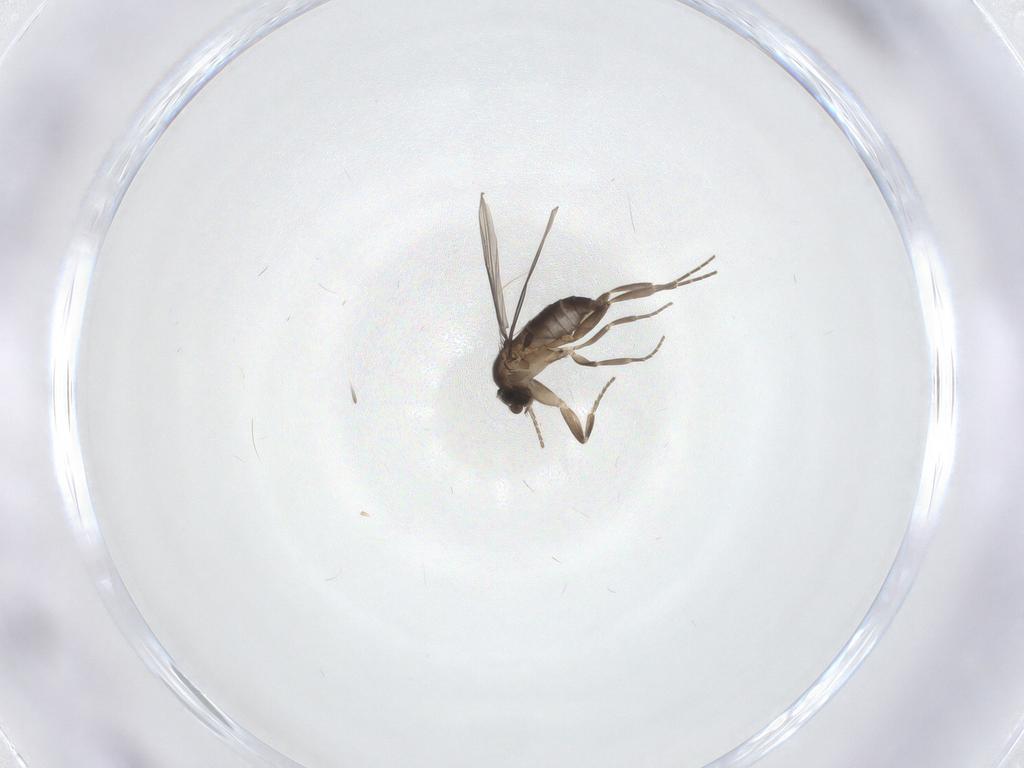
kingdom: Animalia
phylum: Arthropoda
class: Insecta
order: Diptera
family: Phoridae
